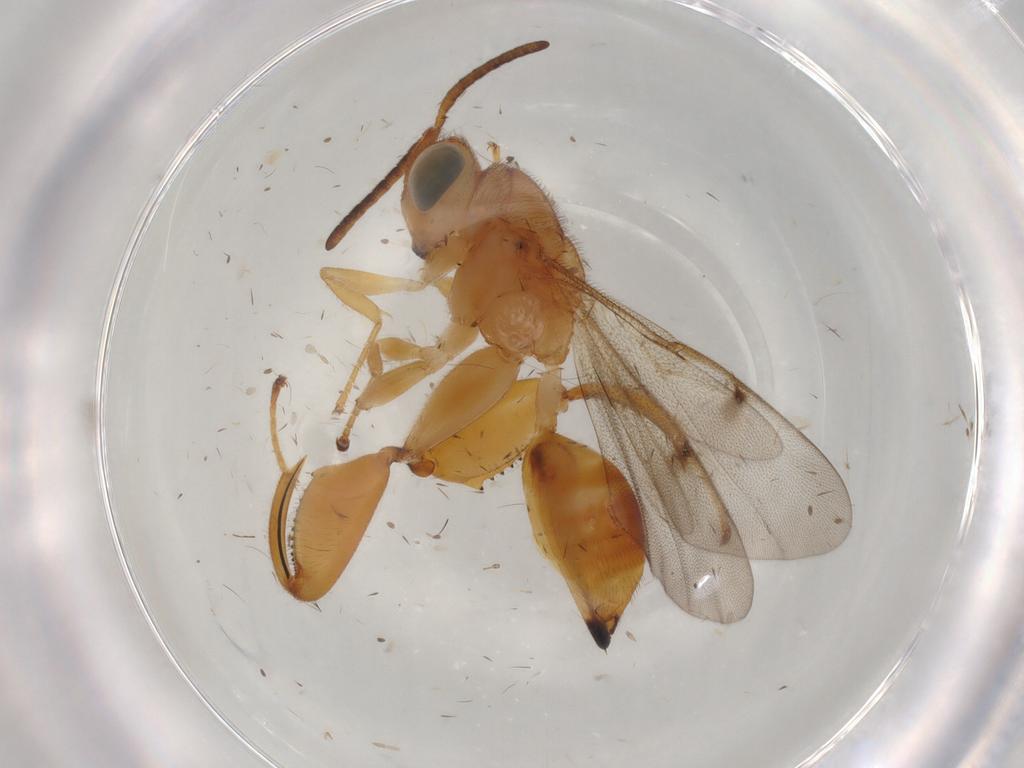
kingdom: Animalia
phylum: Arthropoda
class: Insecta
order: Hymenoptera
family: Chalcididae
